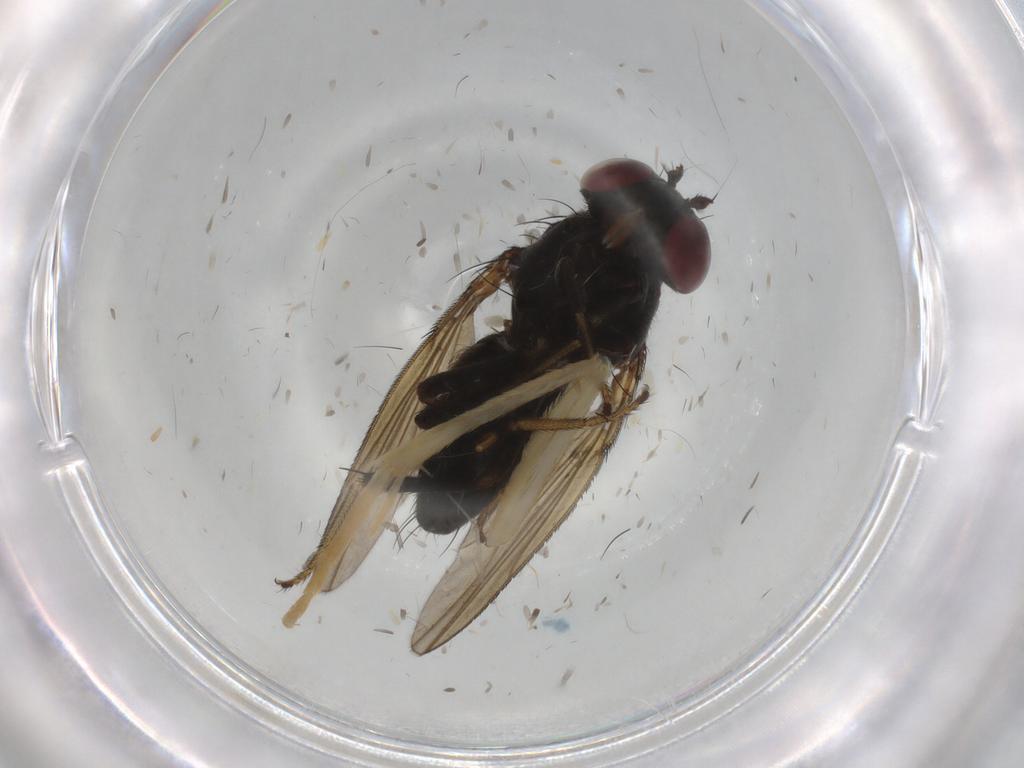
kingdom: Animalia
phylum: Arthropoda
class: Insecta
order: Diptera
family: Ephydridae
